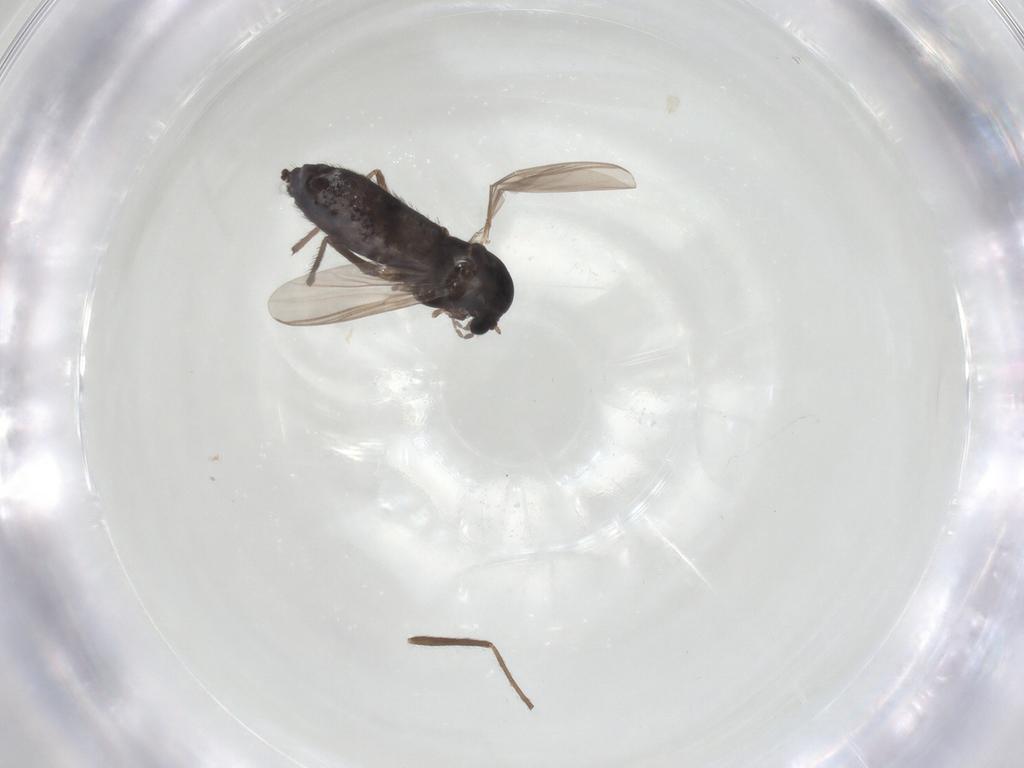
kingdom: Animalia
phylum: Arthropoda
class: Insecta
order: Diptera
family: Chironomidae
